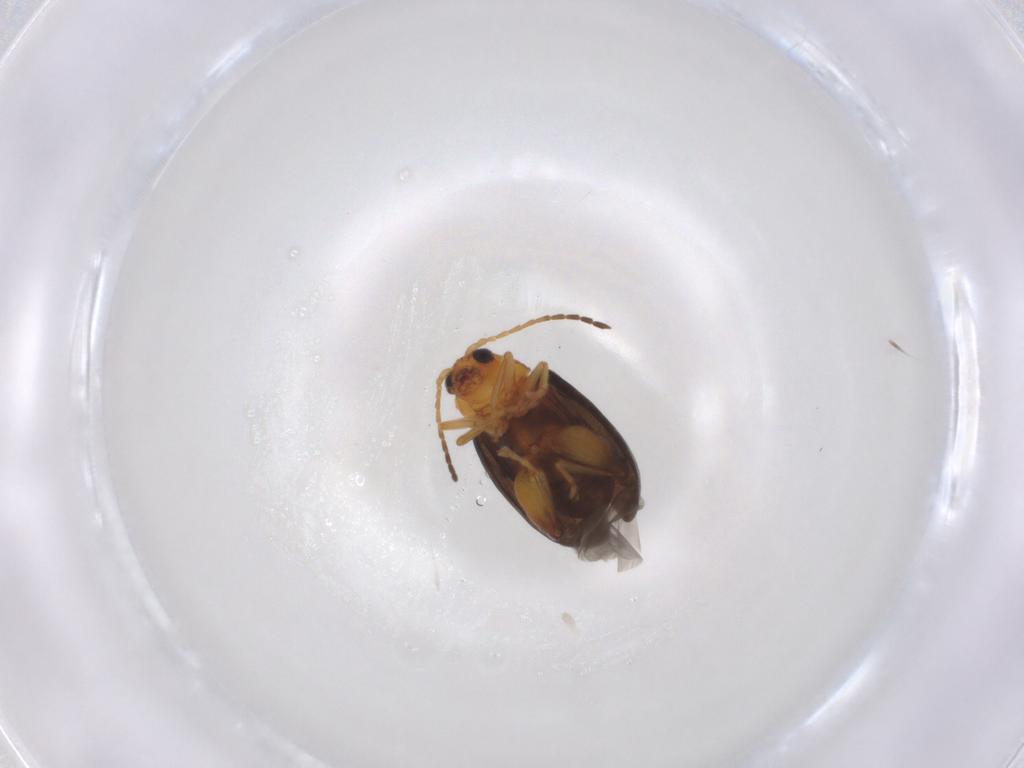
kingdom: Animalia
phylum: Arthropoda
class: Insecta
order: Coleoptera
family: Chrysomelidae
